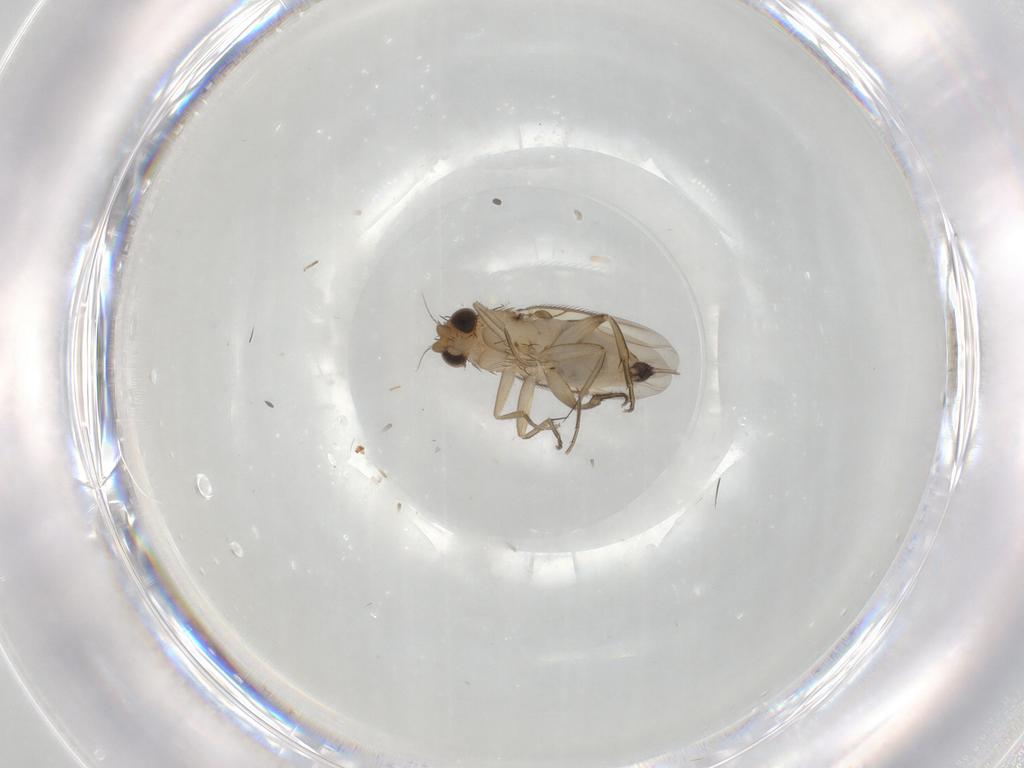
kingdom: Animalia
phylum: Arthropoda
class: Insecta
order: Diptera
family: Phoridae
